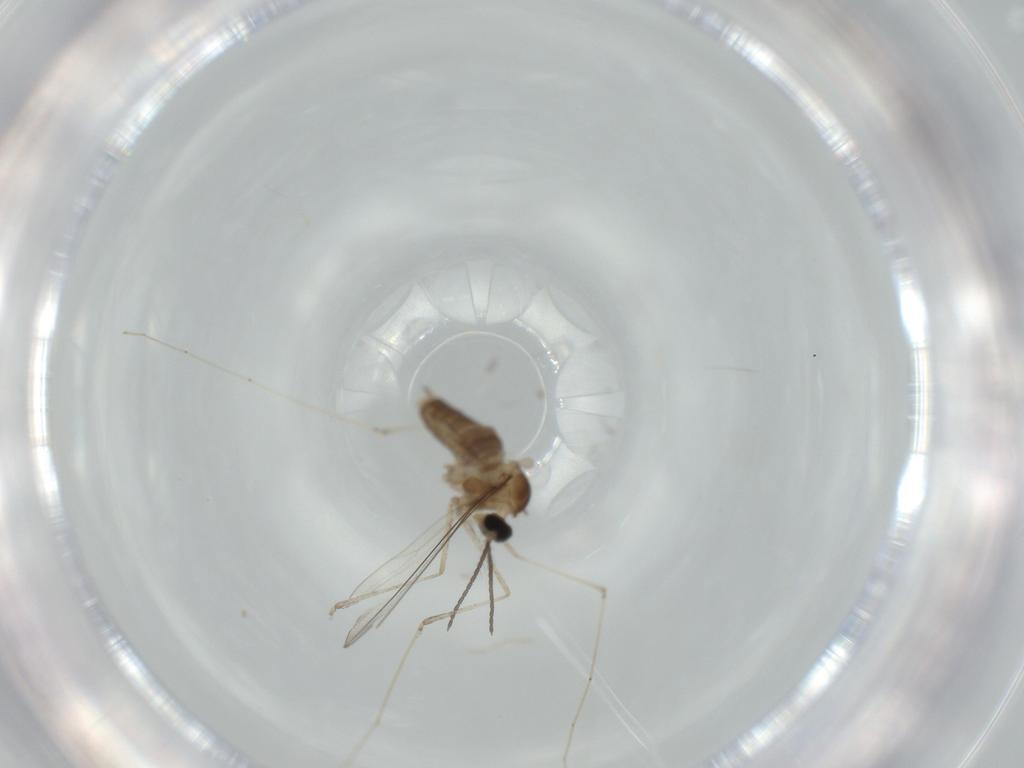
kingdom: Animalia
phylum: Arthropoda
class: Insecta
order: Diptera
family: Cecidomyiidae
